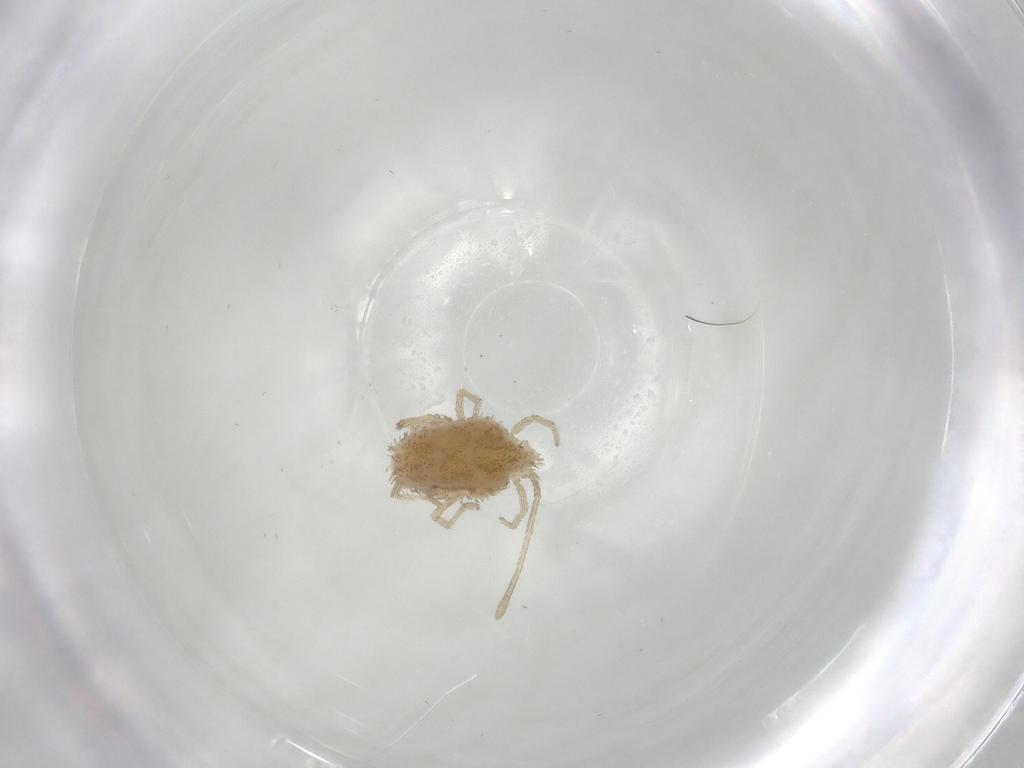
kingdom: Animalia
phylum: Arthropoda
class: Arachnida
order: Trombidiformes
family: Smarididae
